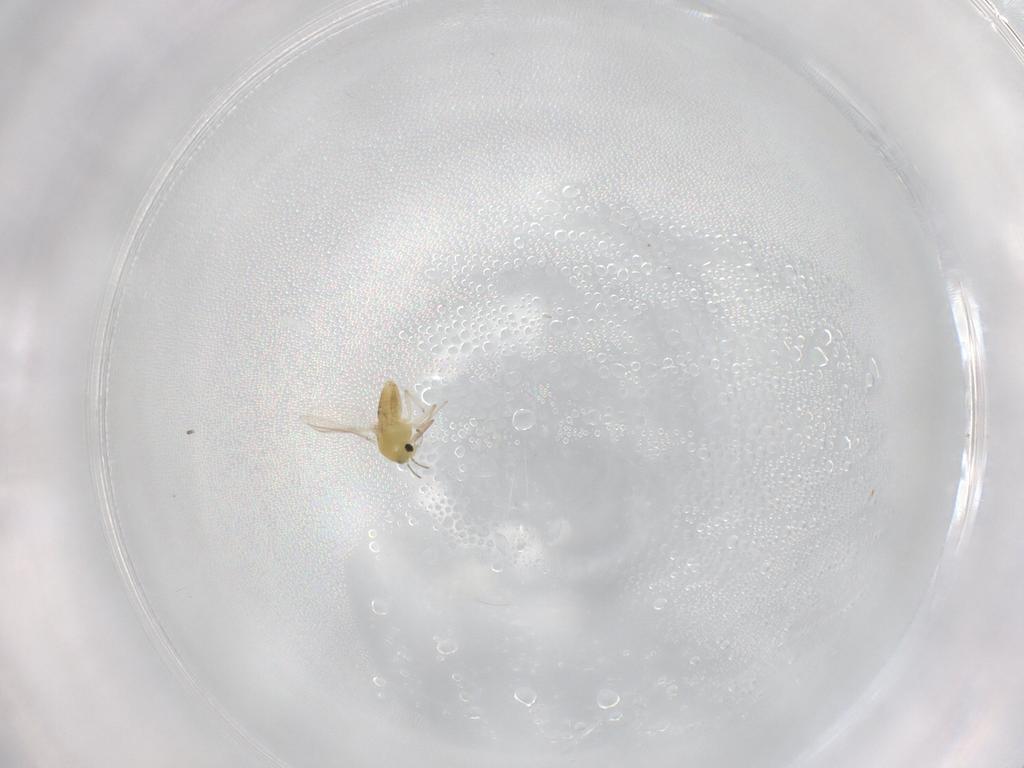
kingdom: Animalia
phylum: Arthropoda
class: Insecta
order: Diptera
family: Chironomidae
